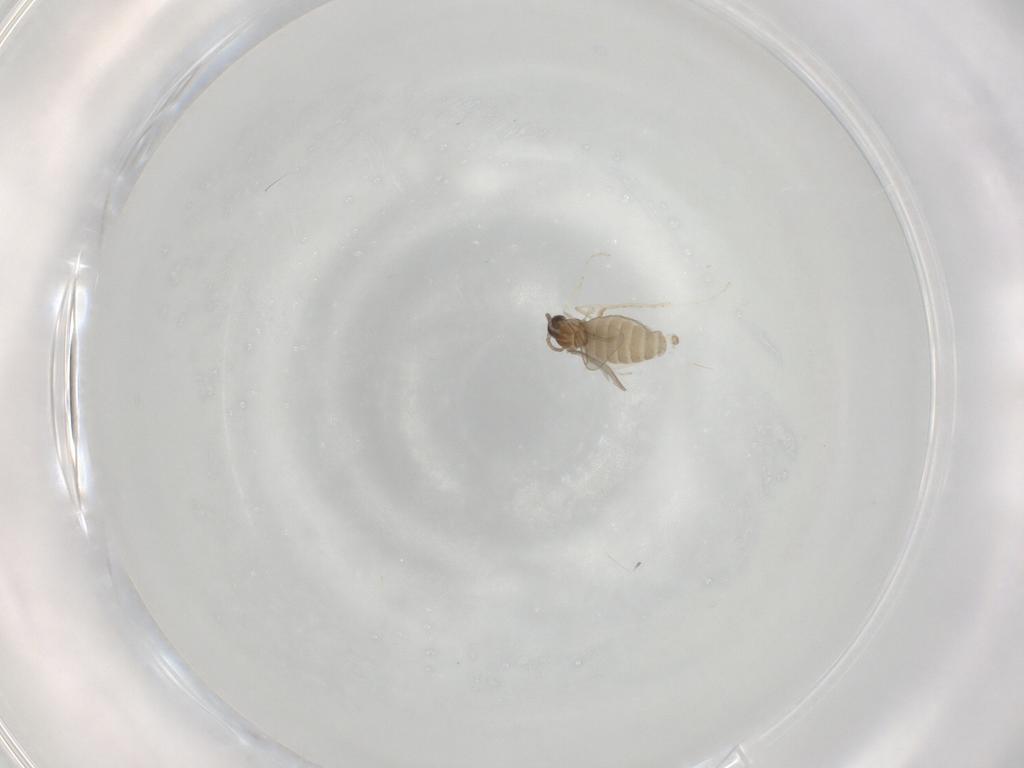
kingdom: Animalia
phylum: Arthropoda
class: Insecta
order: Diptera
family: Cecidomyiidae
